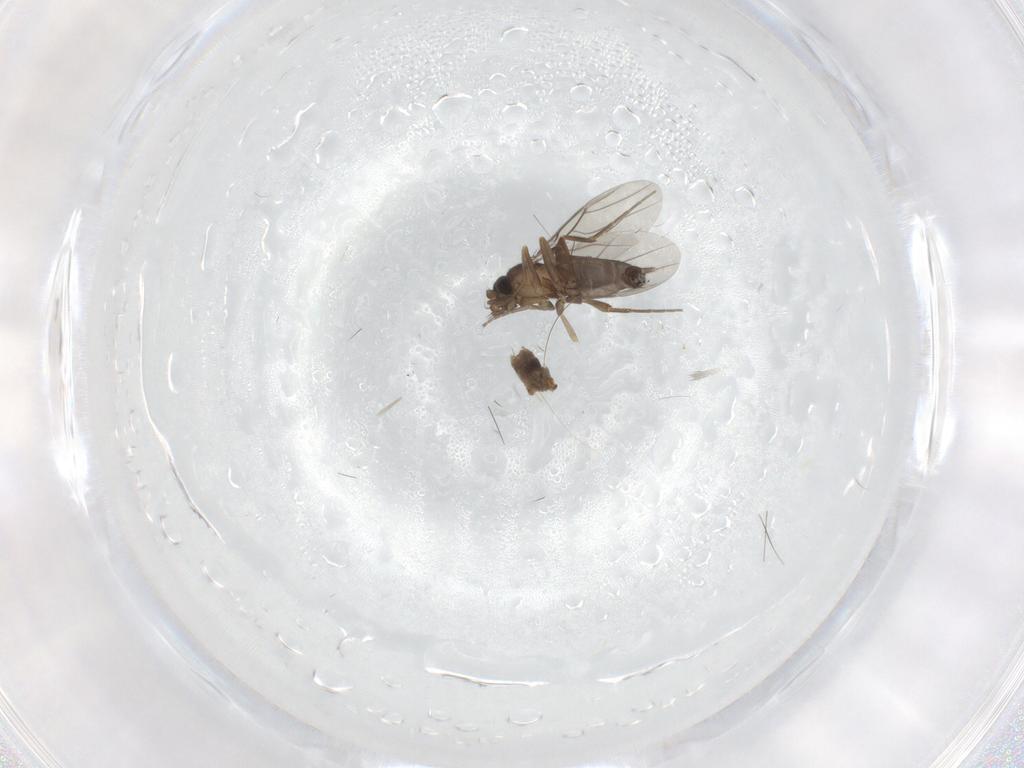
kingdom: Animalia
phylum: Arthropoda
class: Insecta
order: Diptera
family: Phoridae
